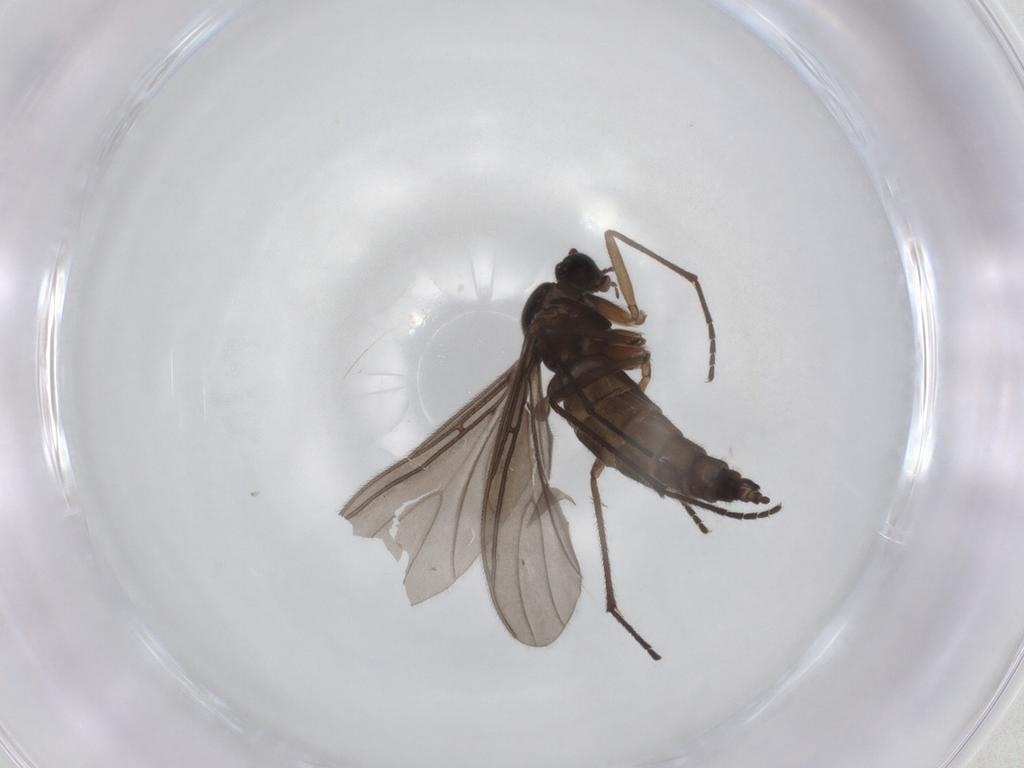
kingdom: Animalia
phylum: Arthropoda
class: Insecta
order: Diptera
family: Sciaridae
